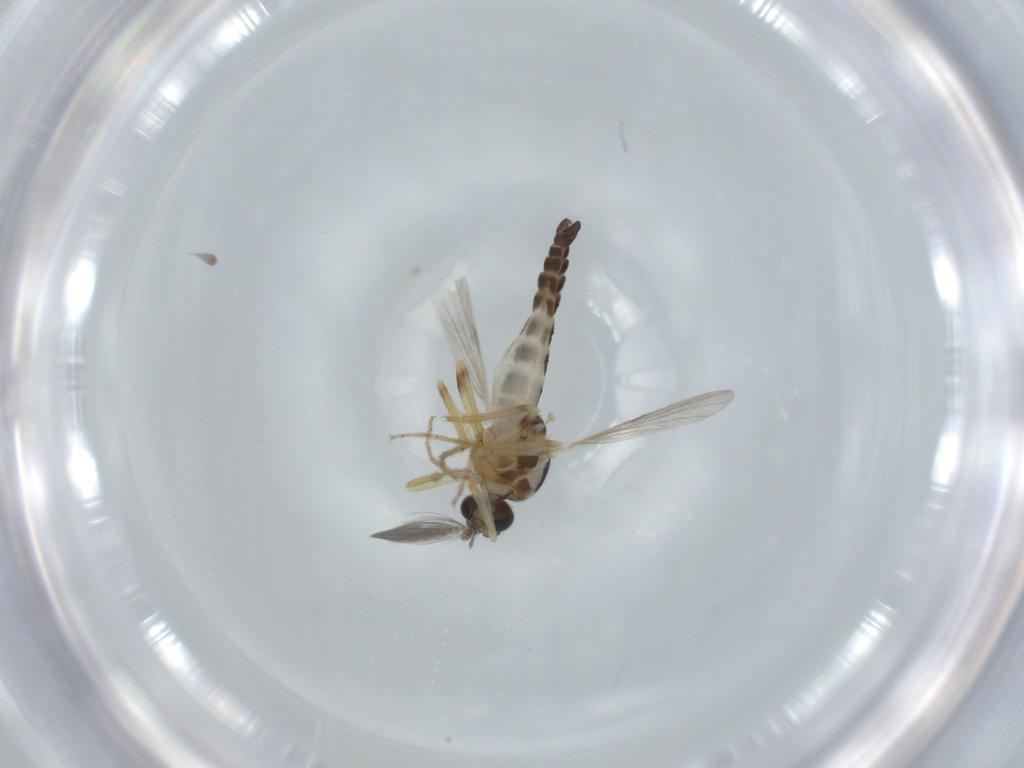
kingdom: Animalia
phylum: Arthropoda
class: Insecta
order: Diptera
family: Cecidomyiidae
